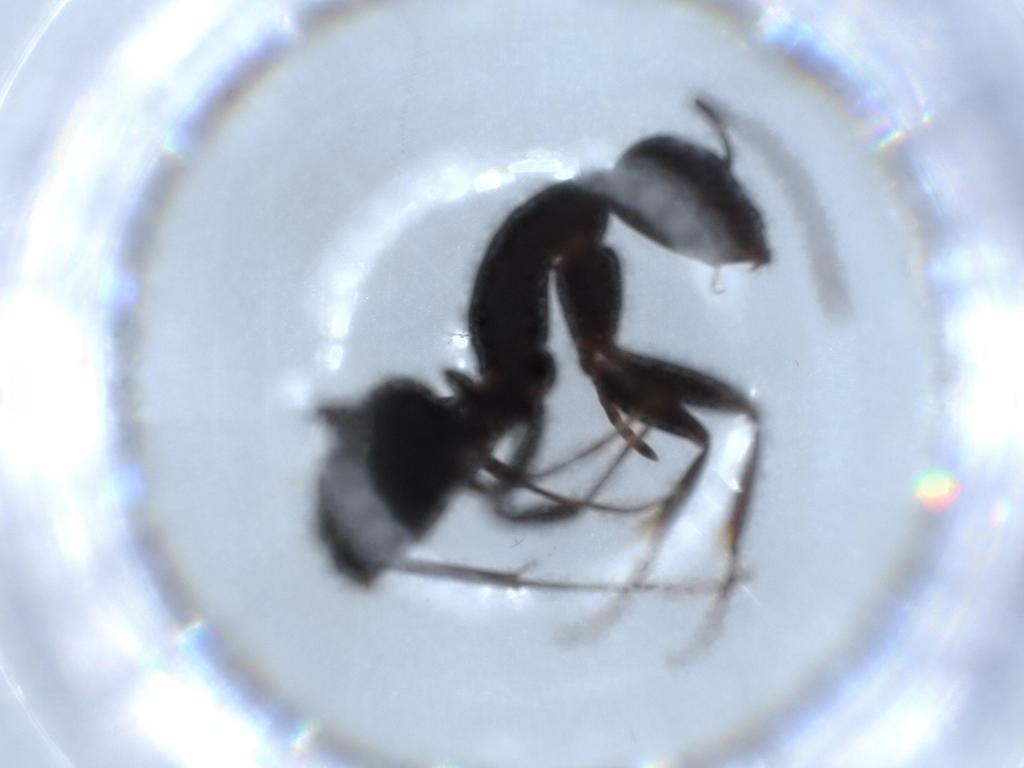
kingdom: Animalia
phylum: Arthropoda
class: Insecta
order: Hymenoptera
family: Formicidae
